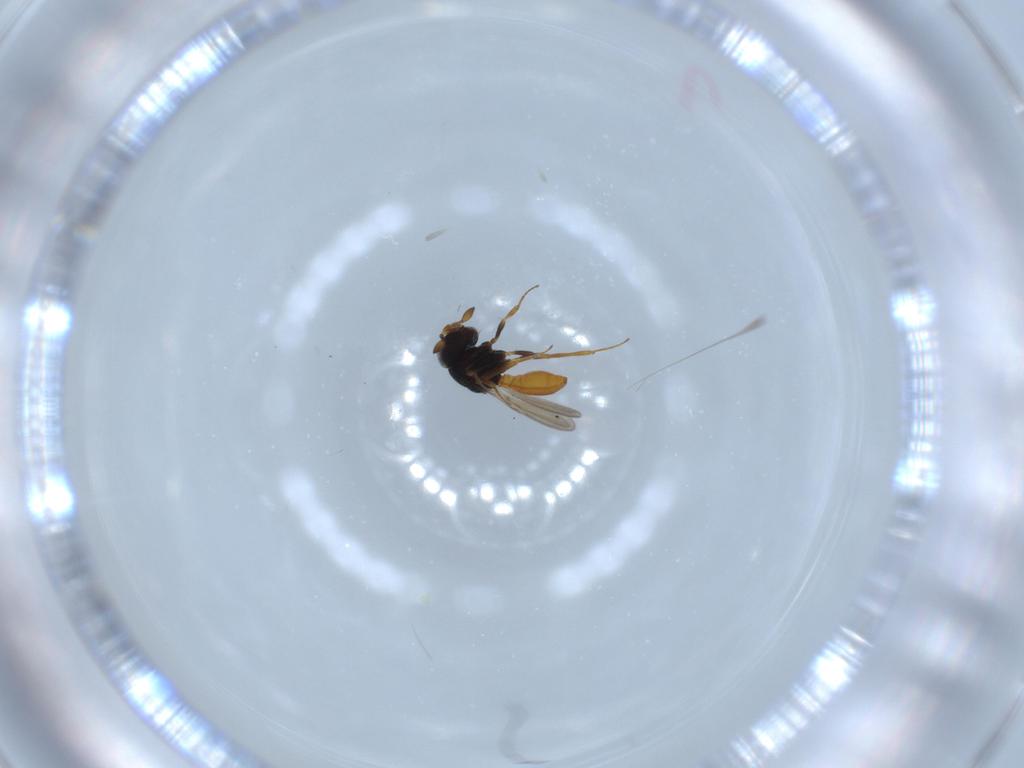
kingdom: Animalia
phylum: Arthropoda
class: Insecta
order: Hymenoptera
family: Scelionidae
